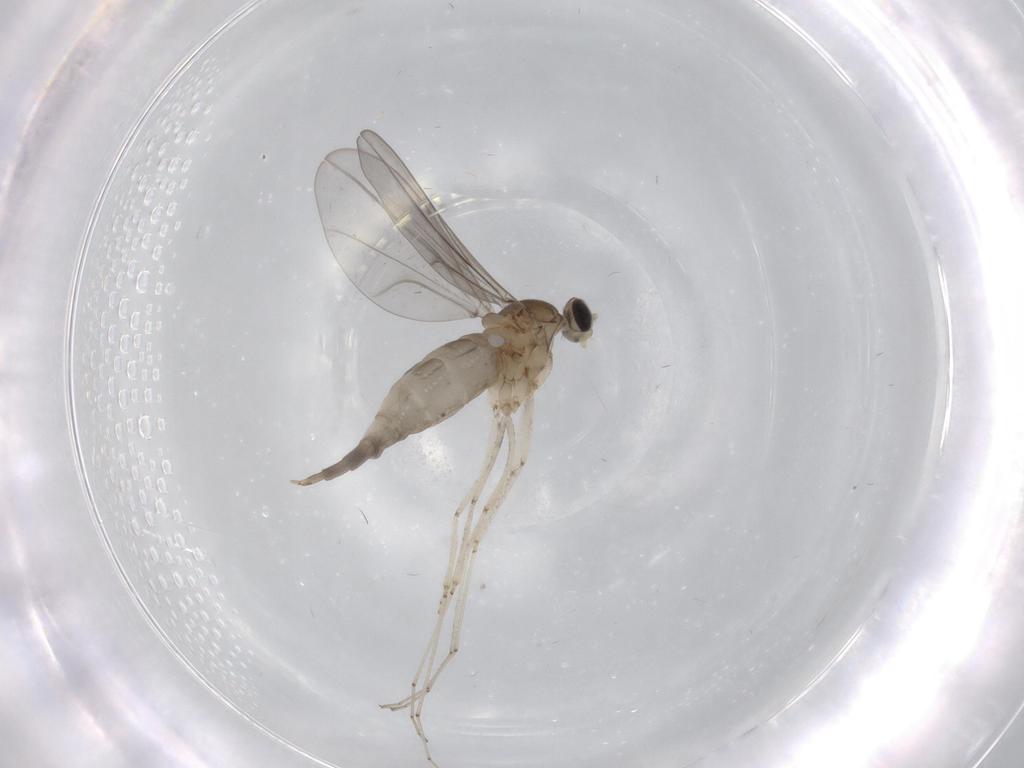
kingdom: Animalia
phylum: Arthropoda
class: Insecta
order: Diptera
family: Cecidomyiidae
